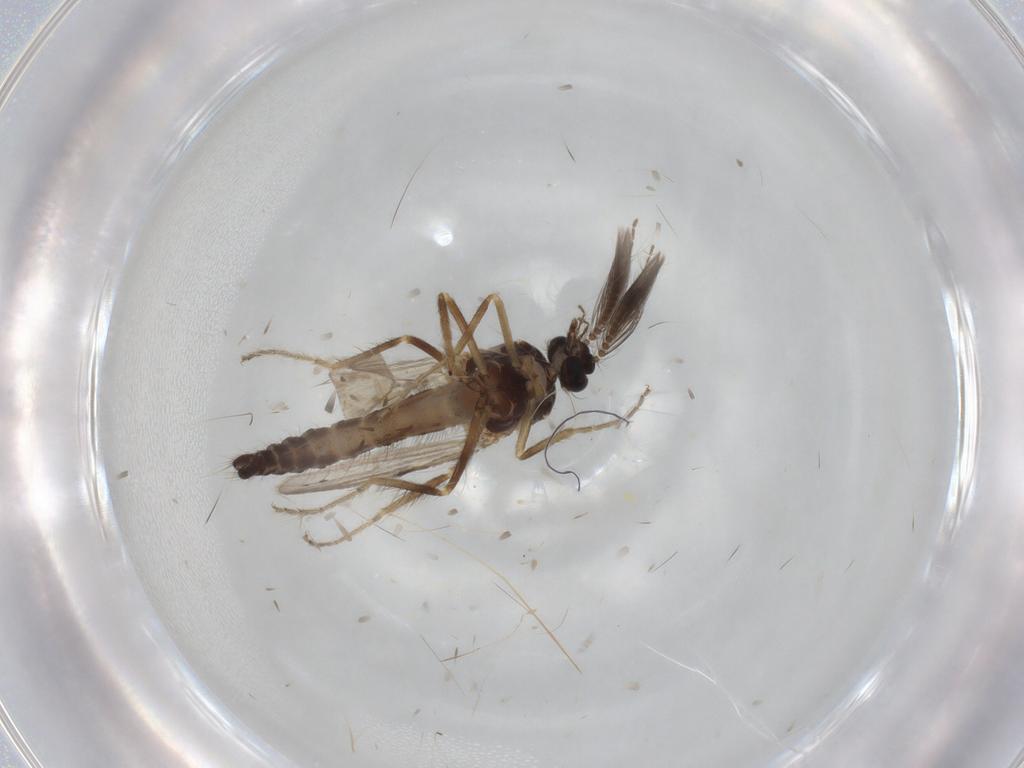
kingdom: Animalia
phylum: Arthropoda
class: Insecta
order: Diptera
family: Ceratopogonidae
